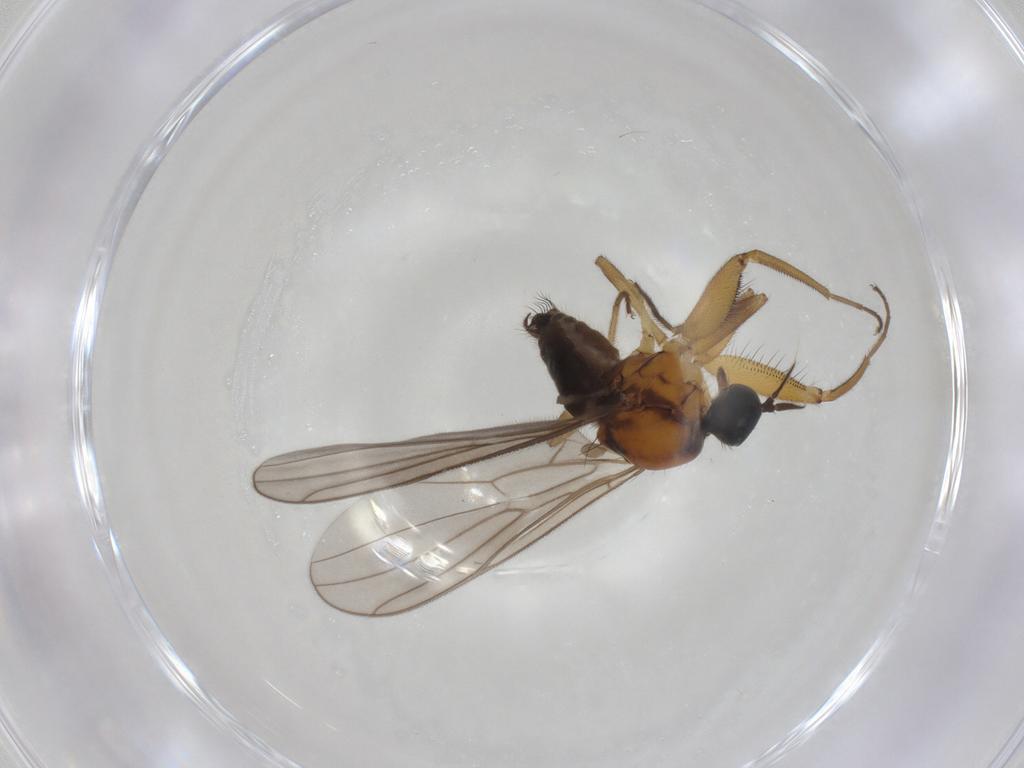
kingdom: Animalia
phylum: Arthropoda
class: Insecta
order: Diptera
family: Hybotidae
